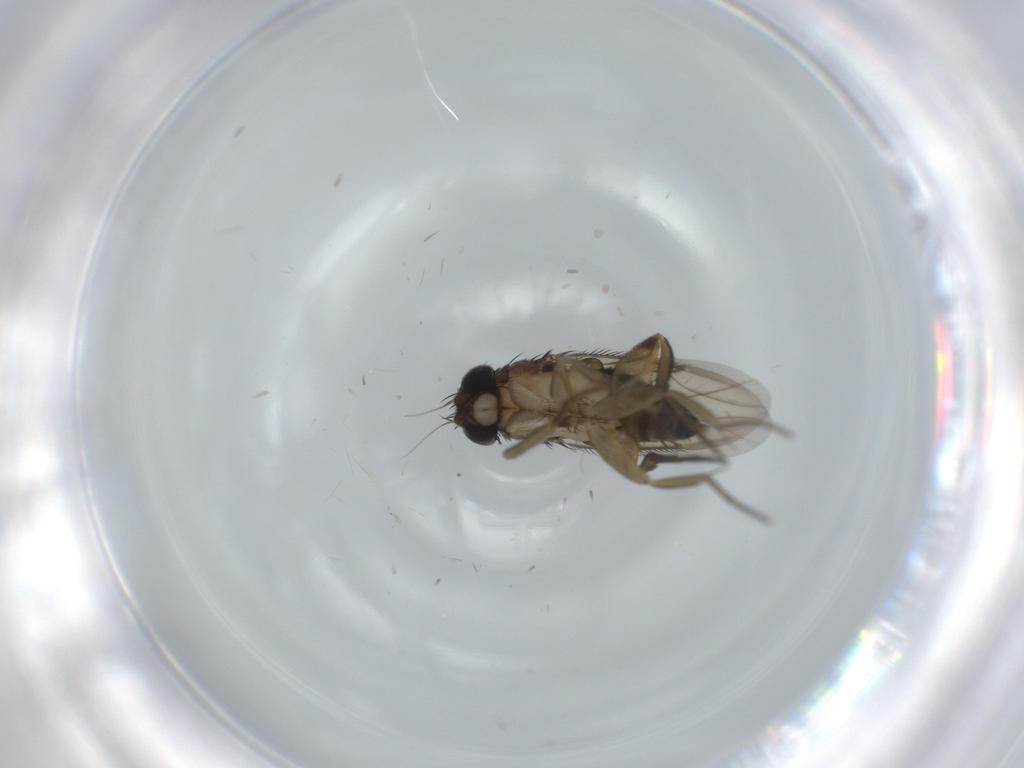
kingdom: Animalia
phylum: Arthropoda
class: Insecta
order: Diptera
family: Phoridae
